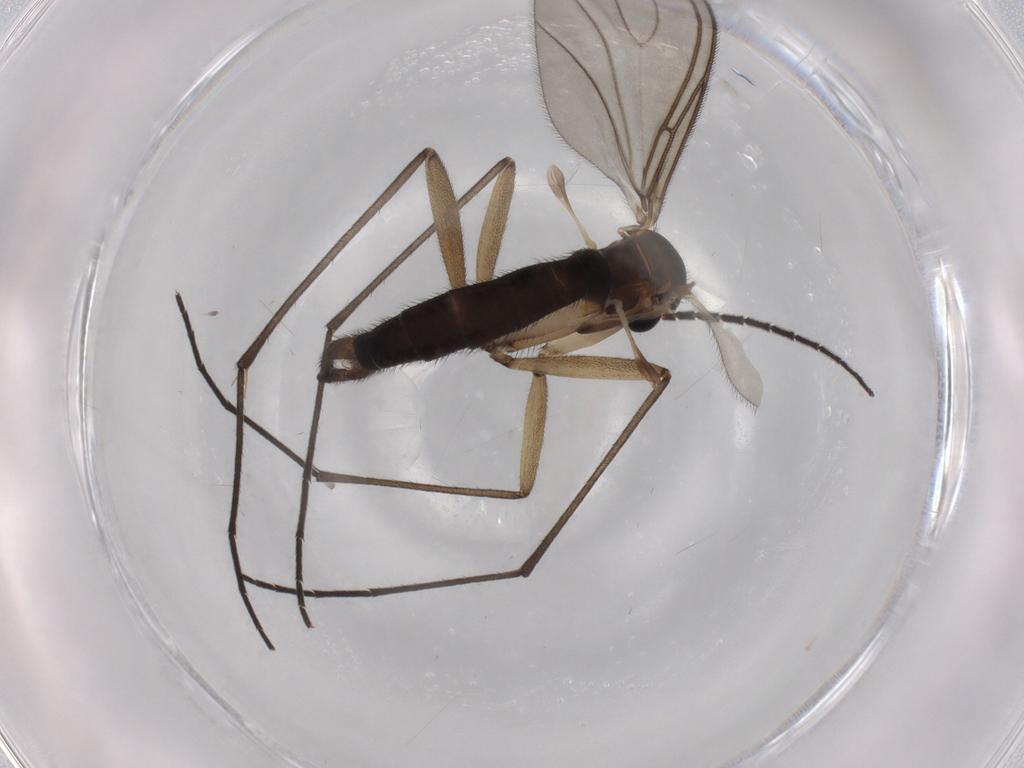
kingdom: Animalia
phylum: Arthropoda
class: Insecta
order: Diptera
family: Sciaridae
